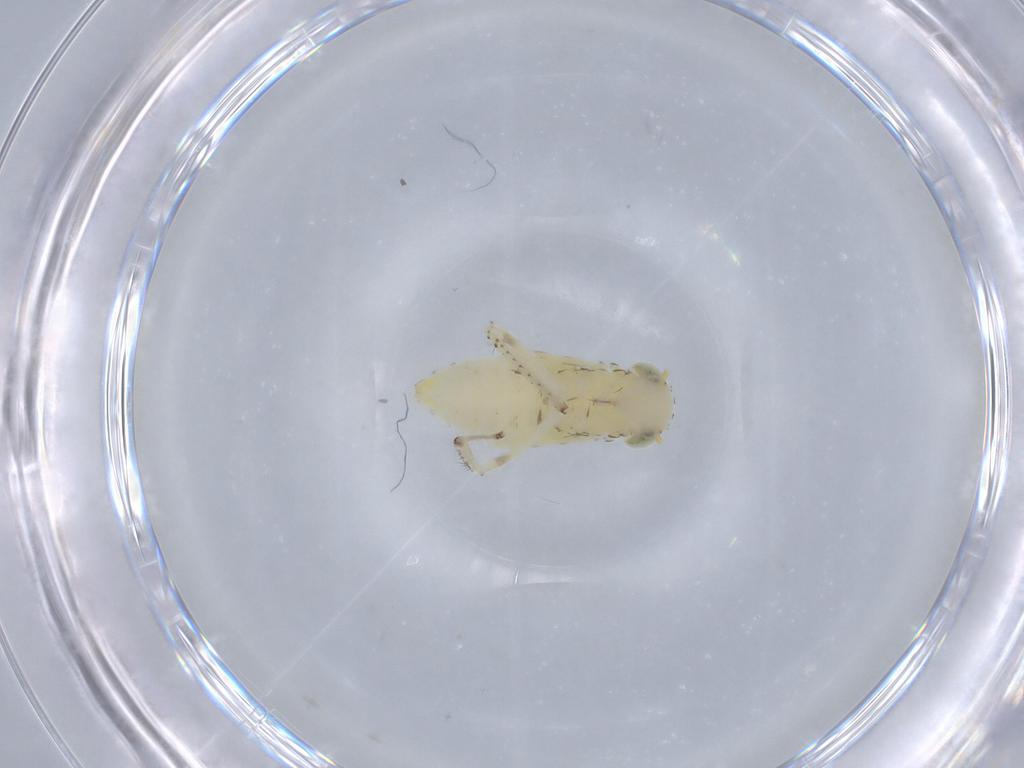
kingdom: Animalia
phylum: Arthropoda
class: Insecta
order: Hemiptera
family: Cicadellidae
